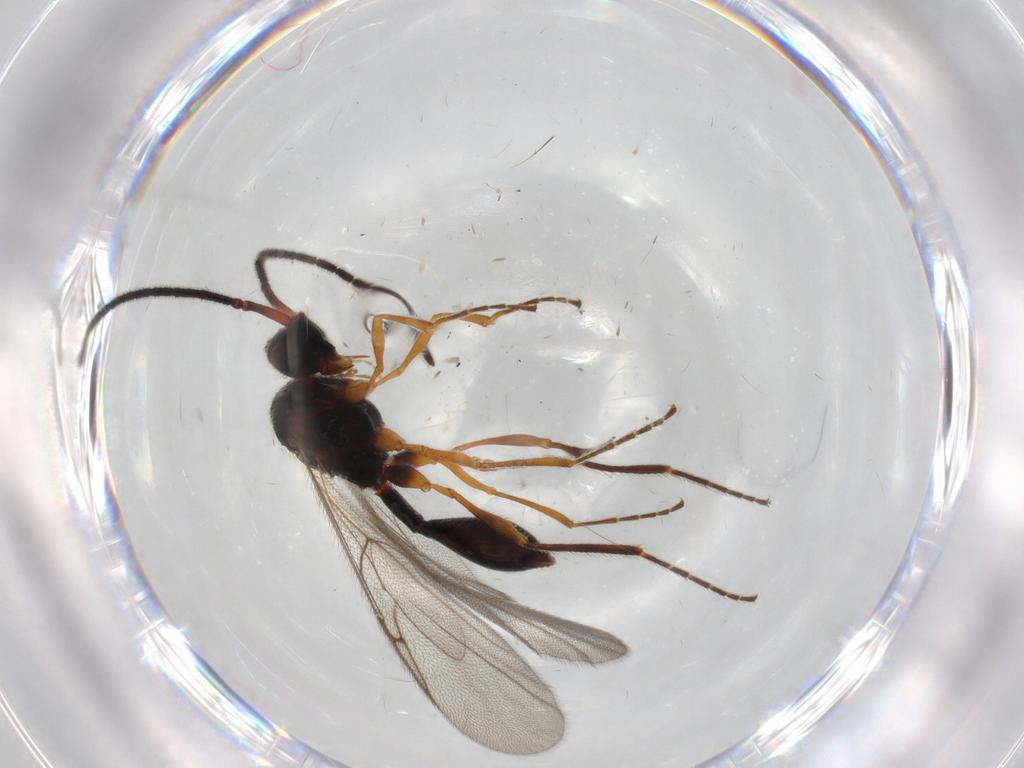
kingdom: Animalia
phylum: Arthropoda
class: Insecta
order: Hymenoptera
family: Diapriidae
